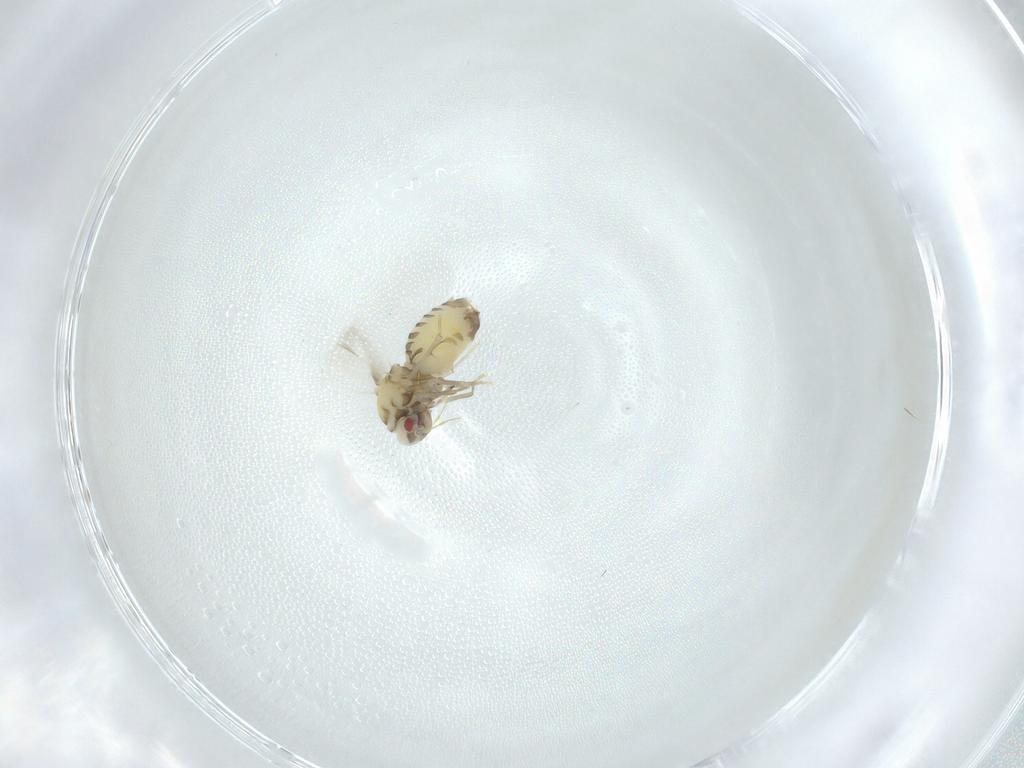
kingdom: Animalia
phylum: Arthropoda
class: Insecta
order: Hemiptera
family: Aleyrodidae
